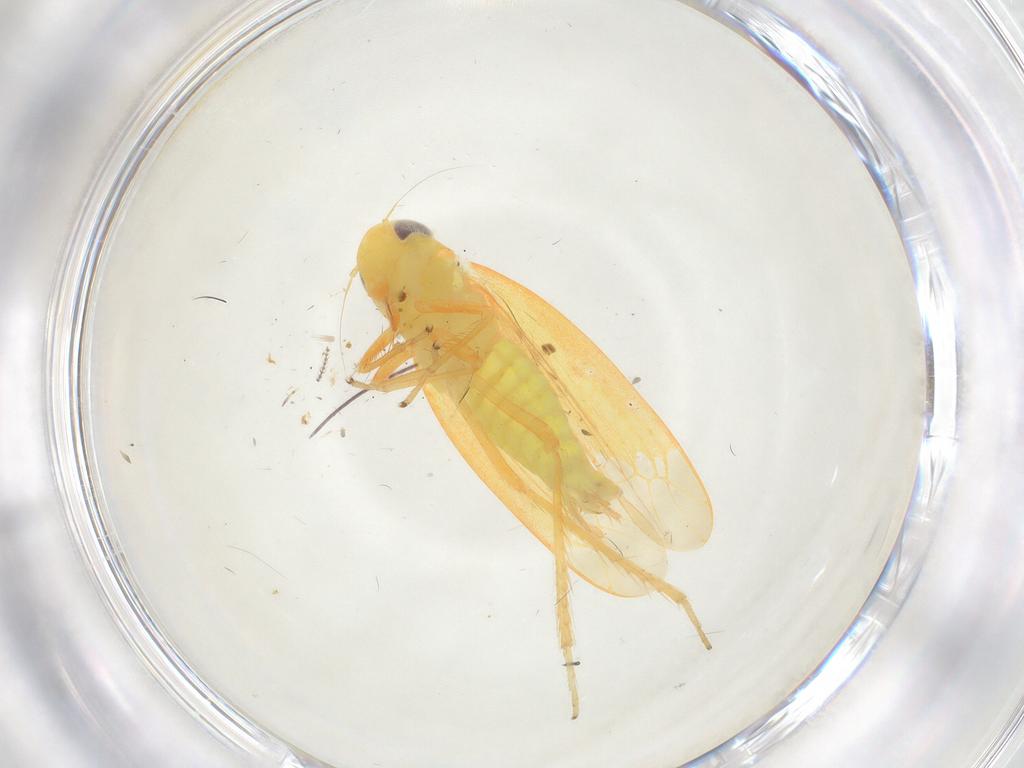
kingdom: Animalia
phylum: Arthropoda
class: Insecta
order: Hemiptera
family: Cicadellidae
